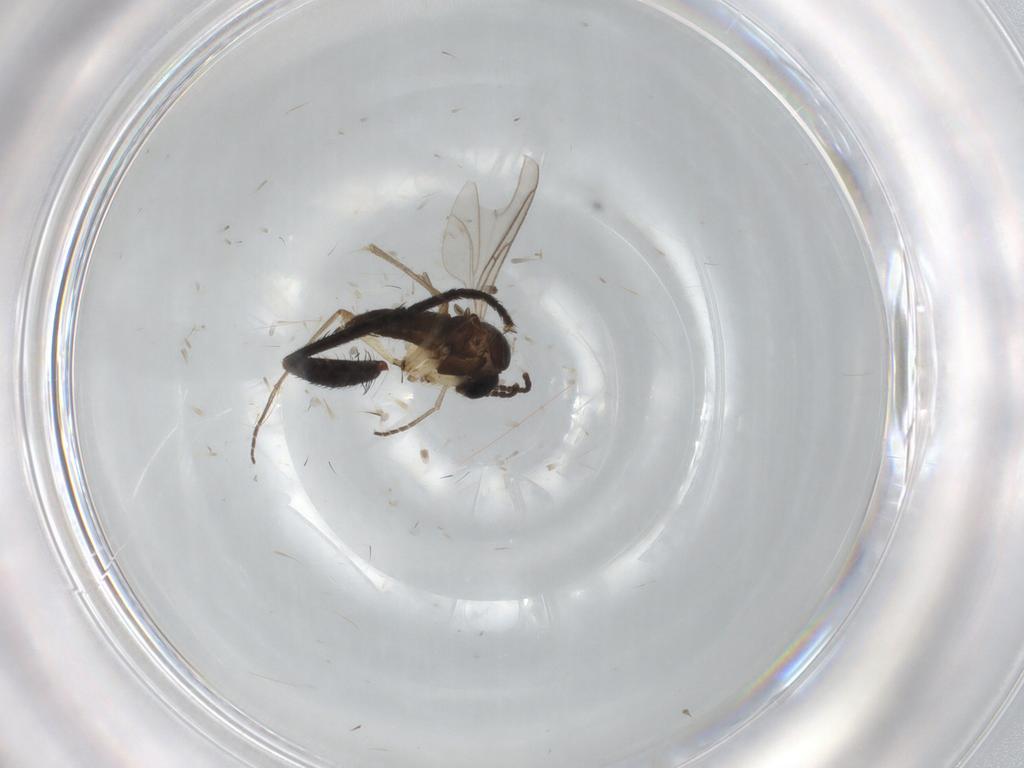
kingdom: Animalia
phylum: Arthropoda
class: Insecta
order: Diptera
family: Sciaridae
